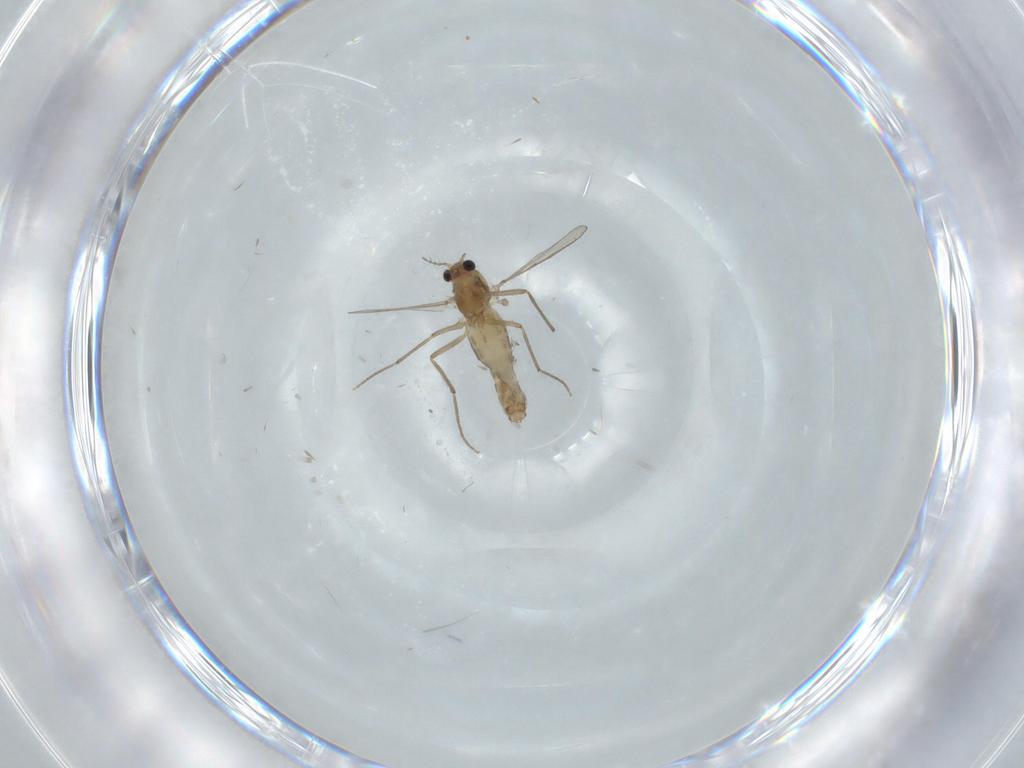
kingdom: Animalia
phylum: Arthropoda
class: Insecta
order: Diptera
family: Chironomidae
